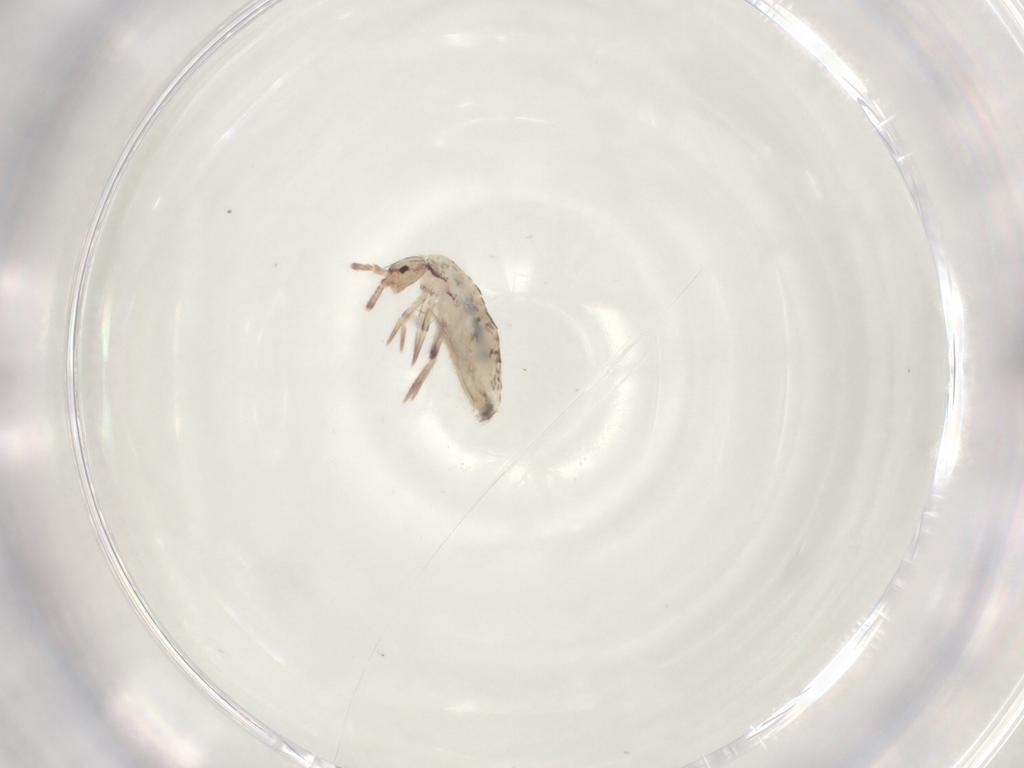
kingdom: Animalia
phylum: Arthropoda
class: Collembola
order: Entomobryomorpha
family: Entomobryidae
